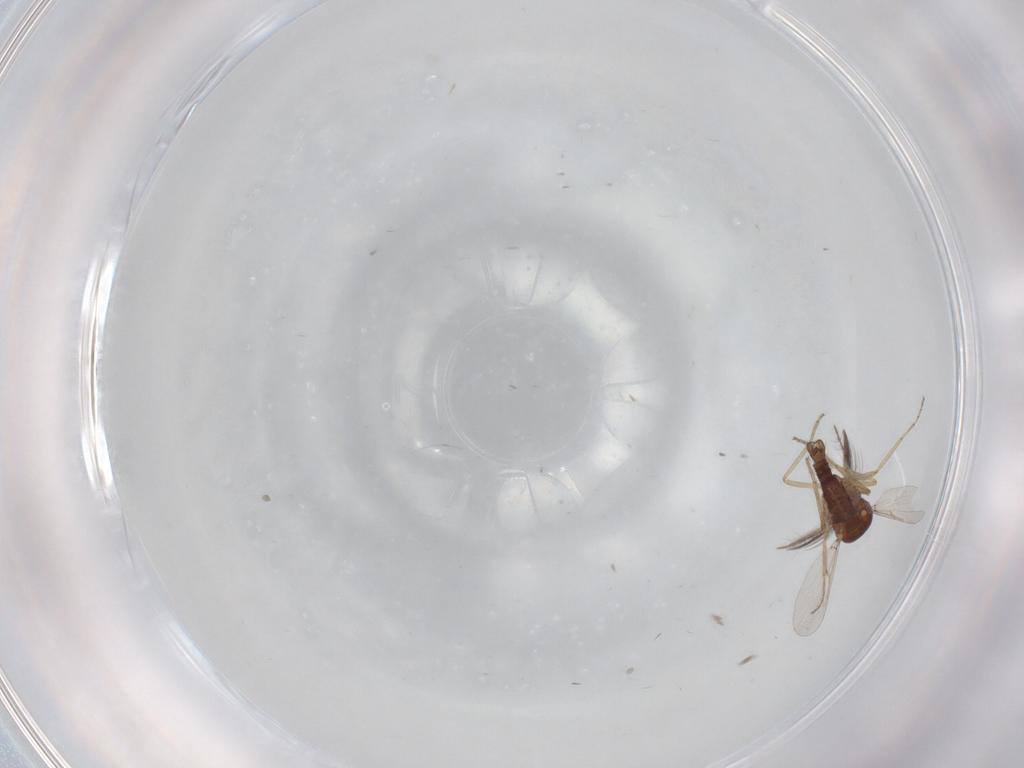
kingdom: Animalia
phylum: Arthropoda
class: Insecta
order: Diptera
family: Ceratopogonidae
